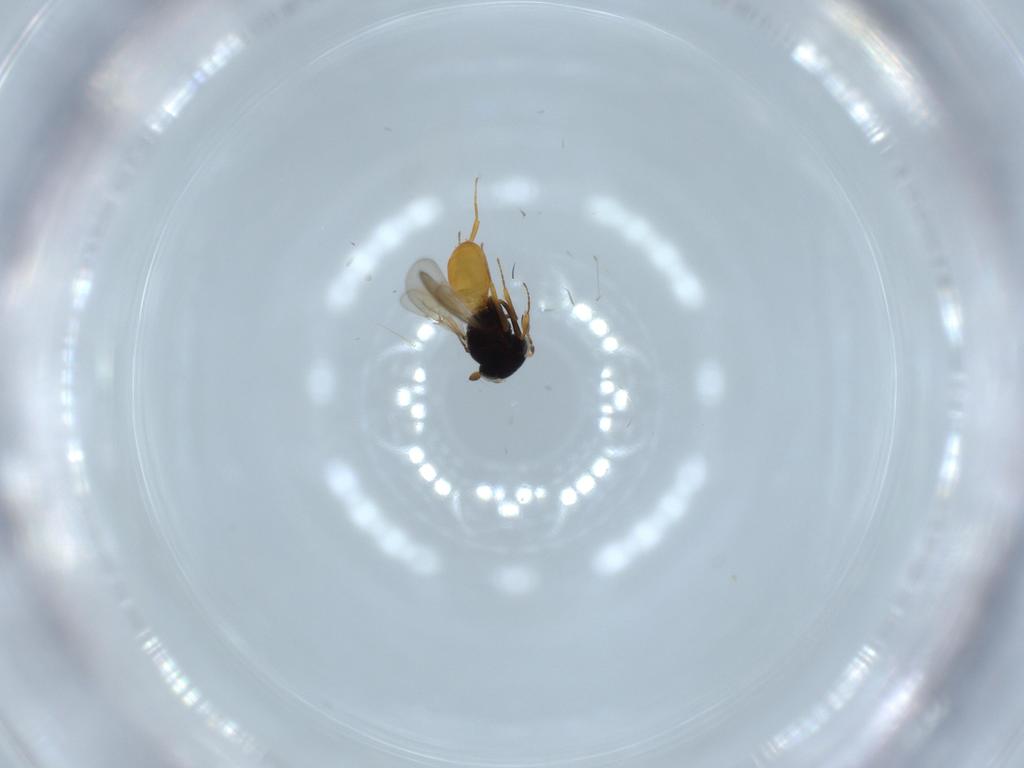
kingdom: Animalia
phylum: Arthropoda
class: Insecta
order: Hymenoptera
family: Scelionidae
